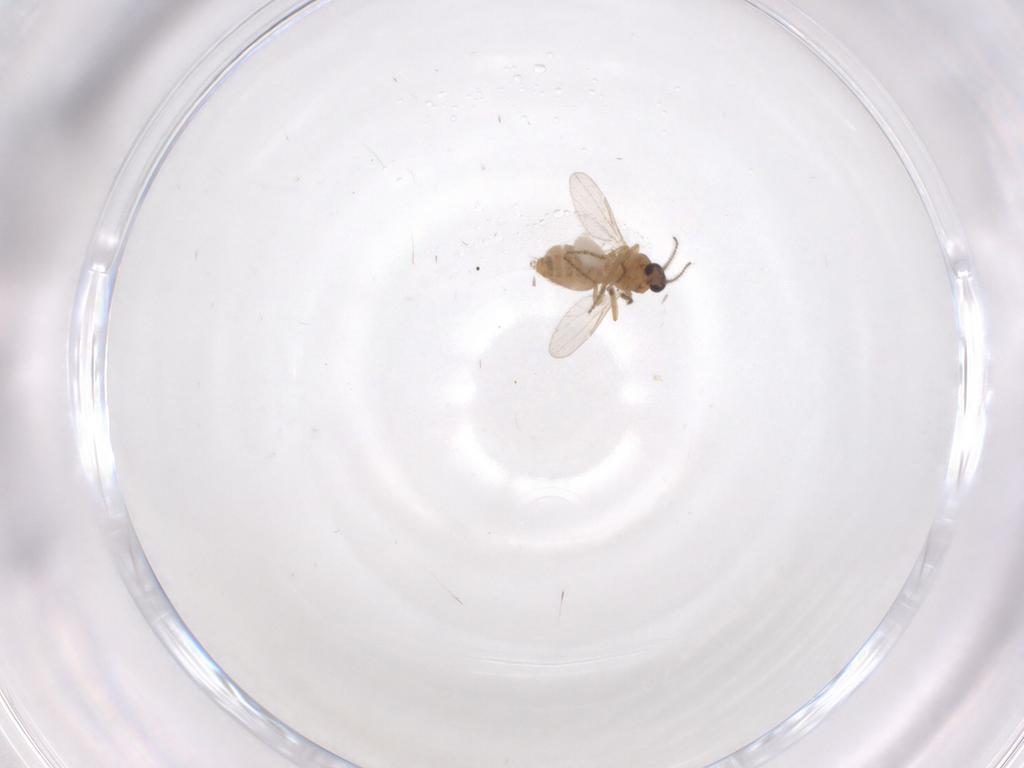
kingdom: Animalia
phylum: Arthropoda
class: Insecta
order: Diptera
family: Ceratopogonidae
